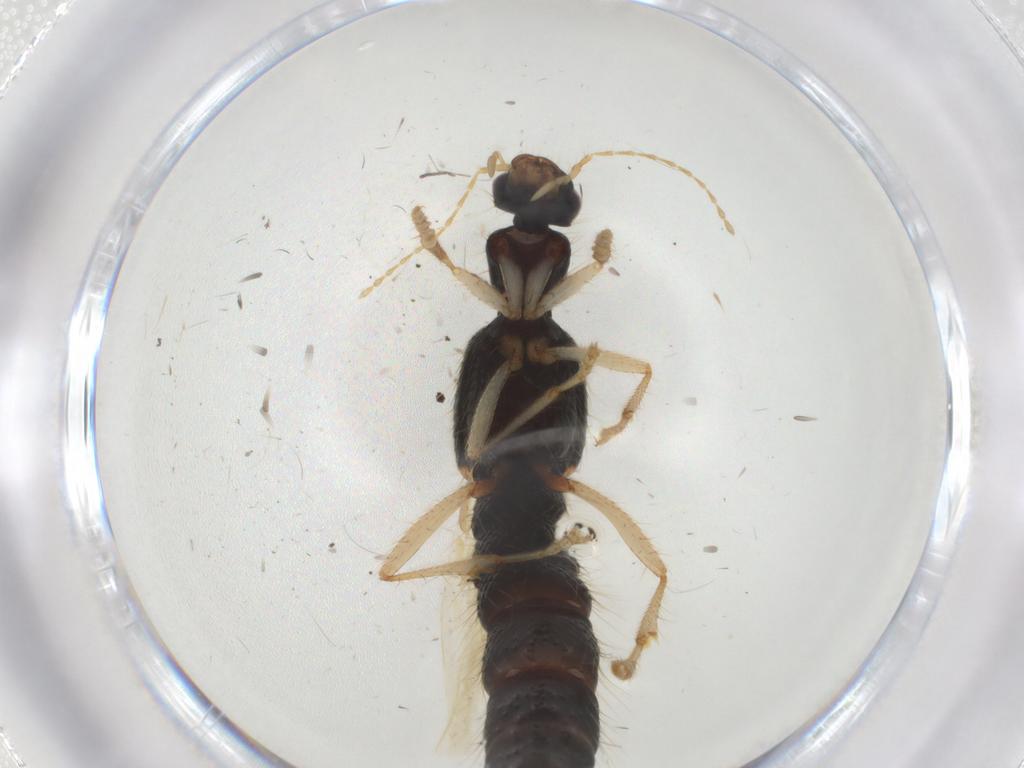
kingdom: Animalia
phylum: Arthropoda
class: Insecta
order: Coleoptera
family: Staphylinidae
